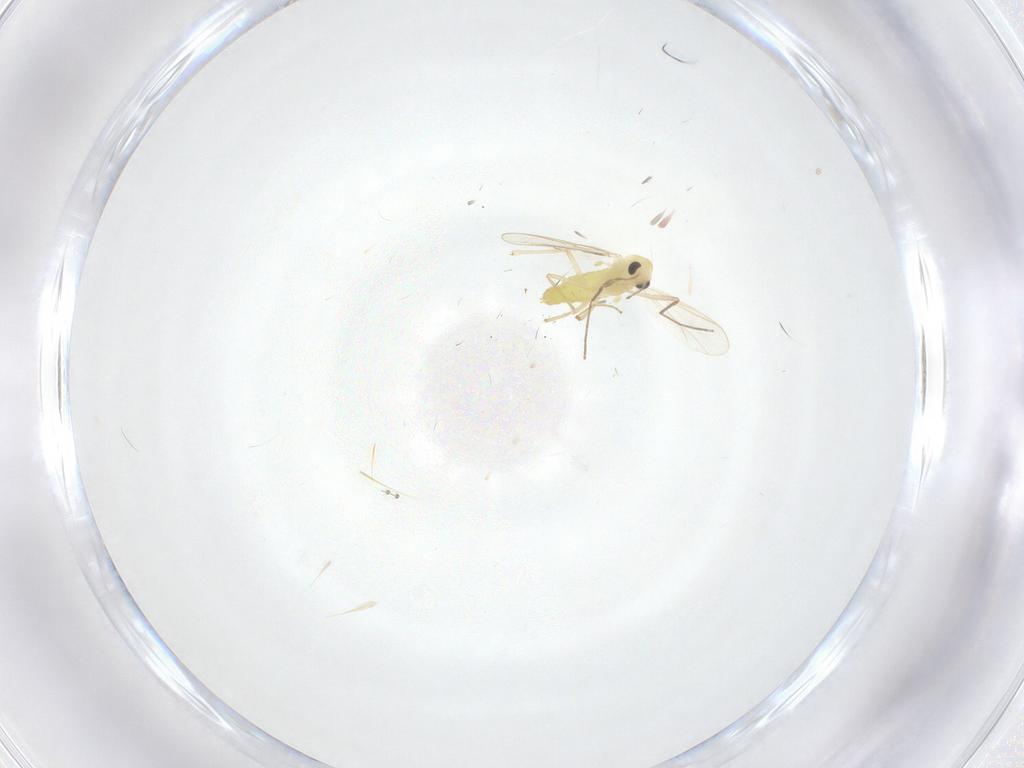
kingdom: Animalia
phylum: Arthropoda
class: Insecta
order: Diptera
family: Chironomidae
